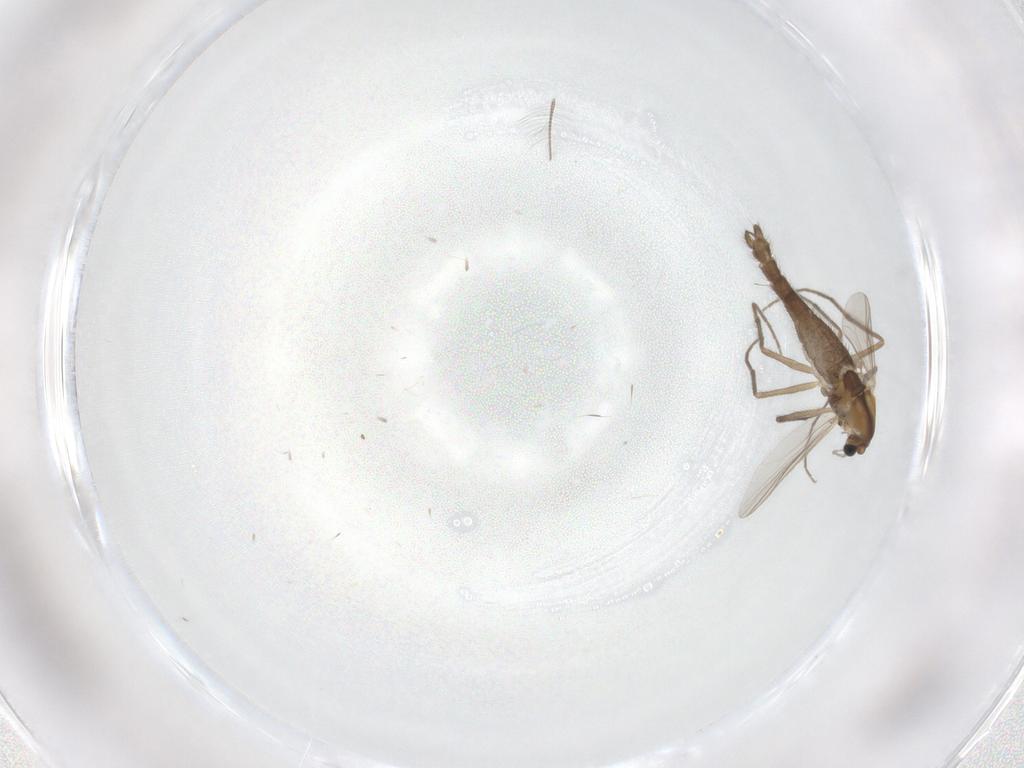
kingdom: Animalia
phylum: Arthropoda
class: Insecta
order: Diptera
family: Chironomidae
